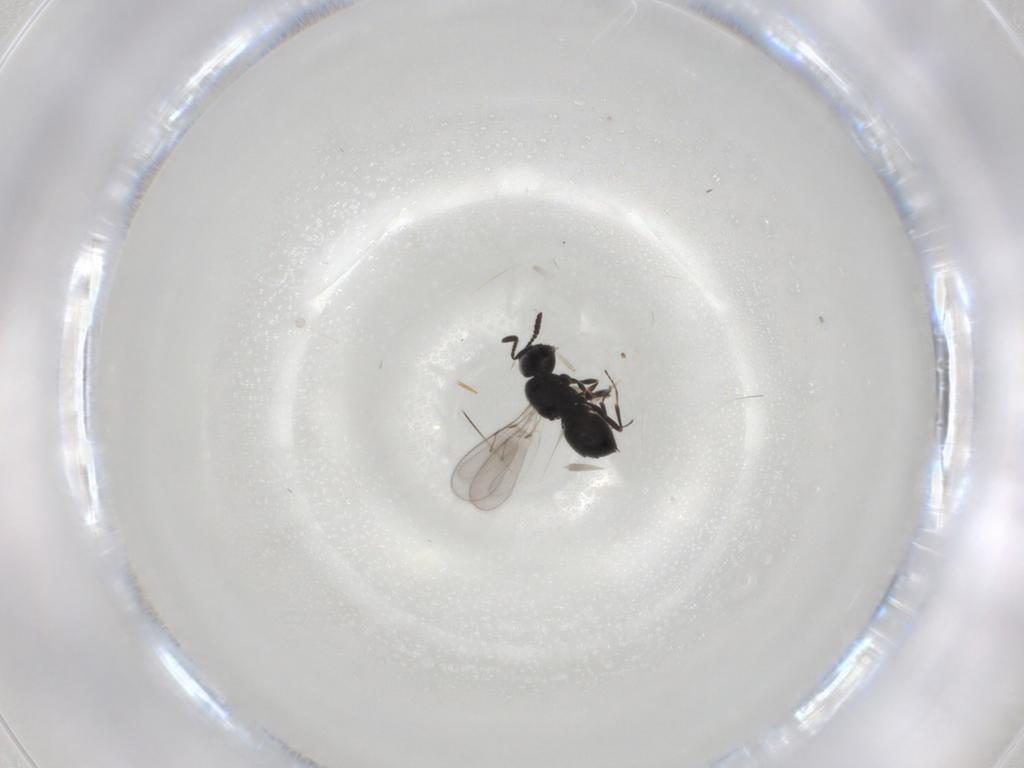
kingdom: Animalia
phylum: Arthropoda
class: Insecta
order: Hymenoptera
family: Scelionidae
